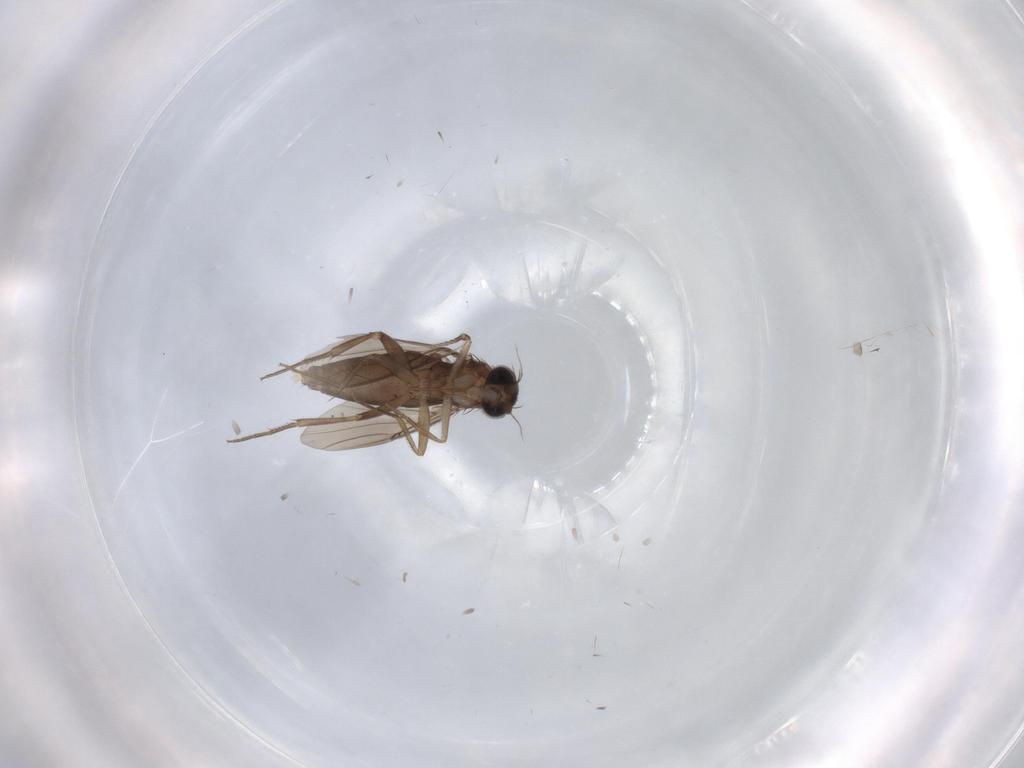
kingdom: Animalia
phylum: Arthropoda
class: Insecta
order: Diptera
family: Phoridae
